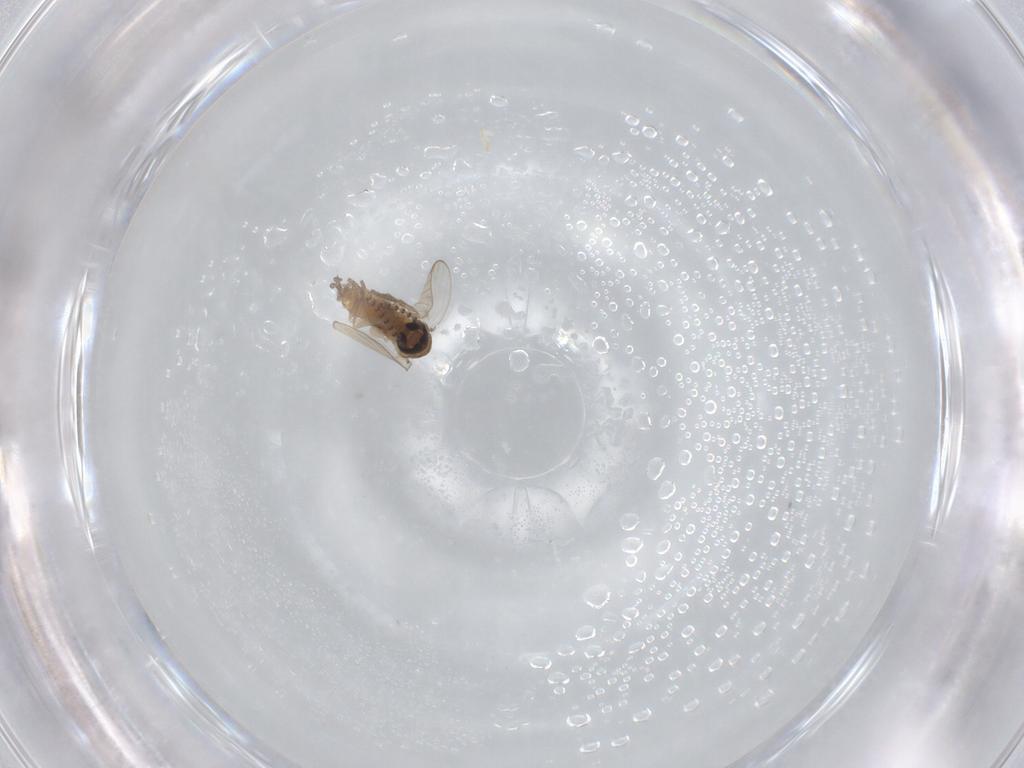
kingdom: Animalia
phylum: Arthropoda
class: Insecta
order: Diptera
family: Psychodidae
